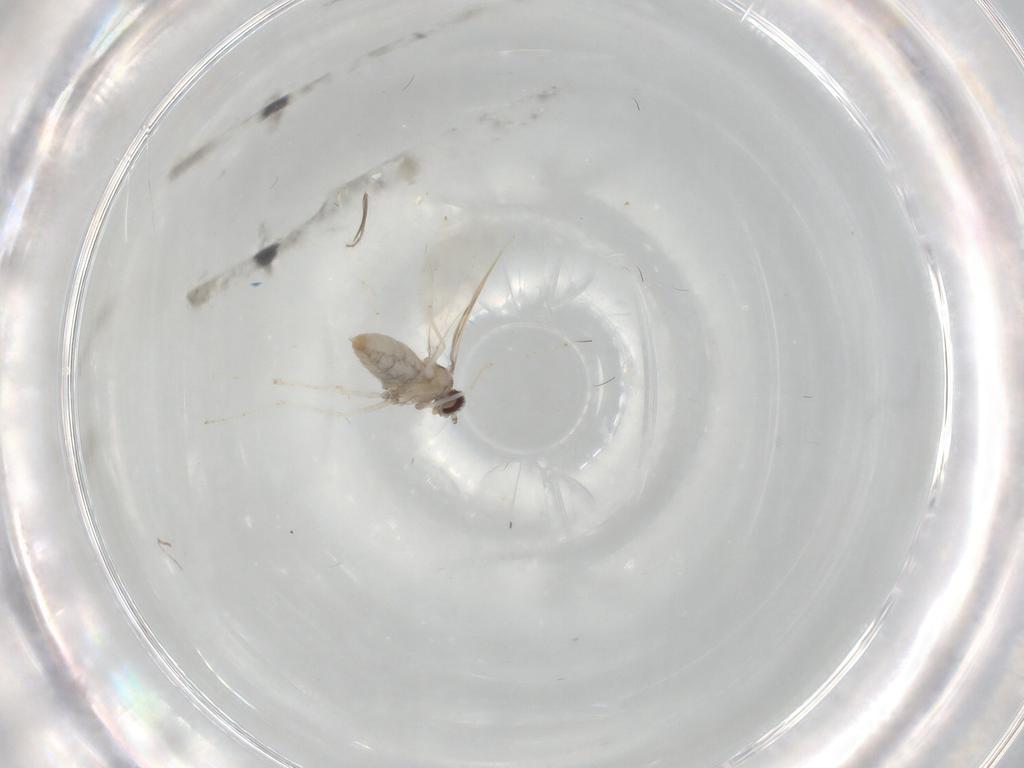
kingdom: Animalia
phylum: Arthropoda
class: Insecta
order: Diptera
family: Cecidomyiidae
